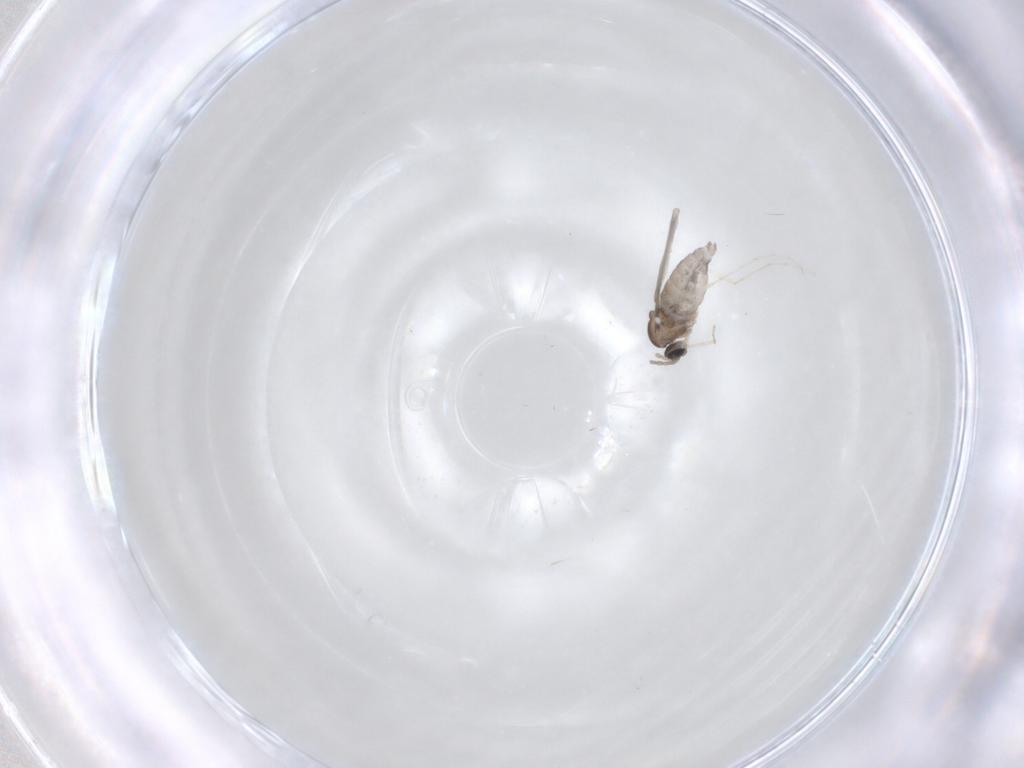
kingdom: Animalia
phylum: Arthropoda
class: Insecta
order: Diptera
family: Cecidomyiidae
